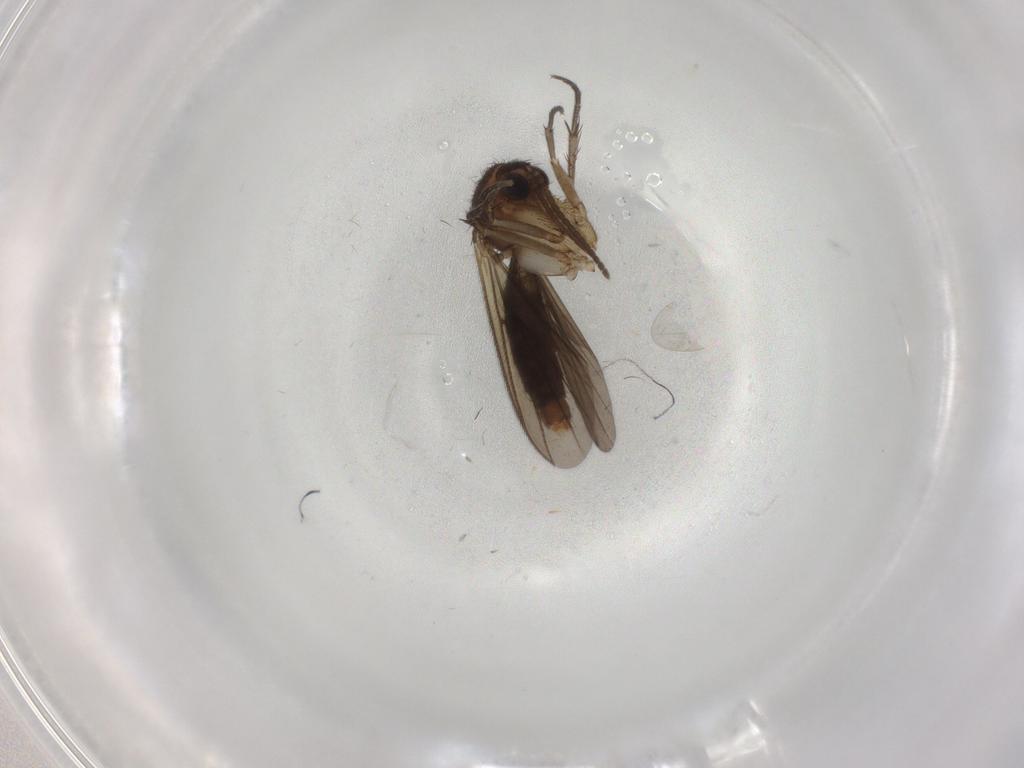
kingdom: Animalia
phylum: Arthropoda
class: Insecta
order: Diptera
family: Mycetophilidae
